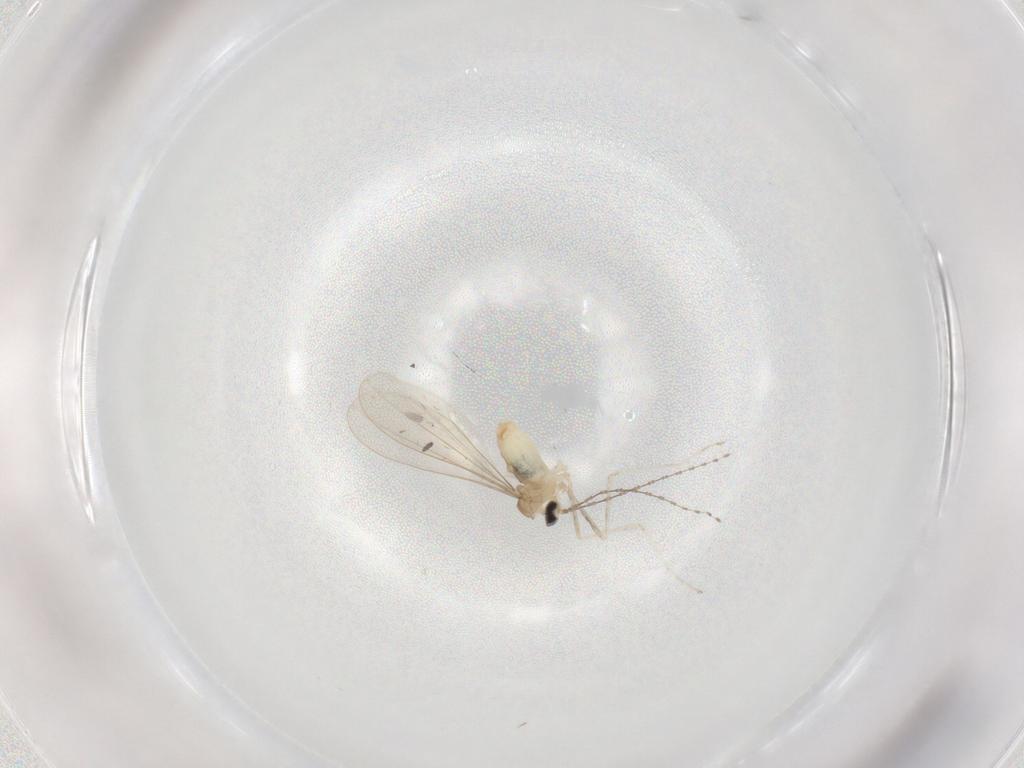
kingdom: Animalia
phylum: Arthropoda
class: Insecta
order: Diptera
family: Cecidomyiidae
